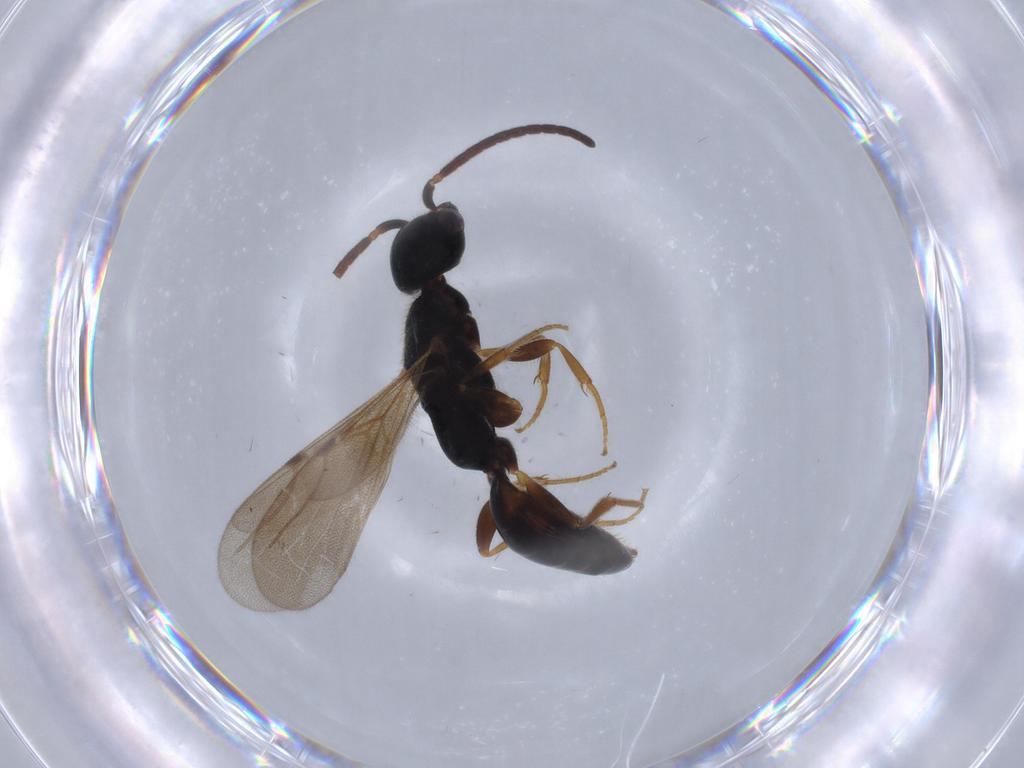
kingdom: Animalia
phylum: Arthropoda
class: Insecta
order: Hymenoptera
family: Bethylidae
